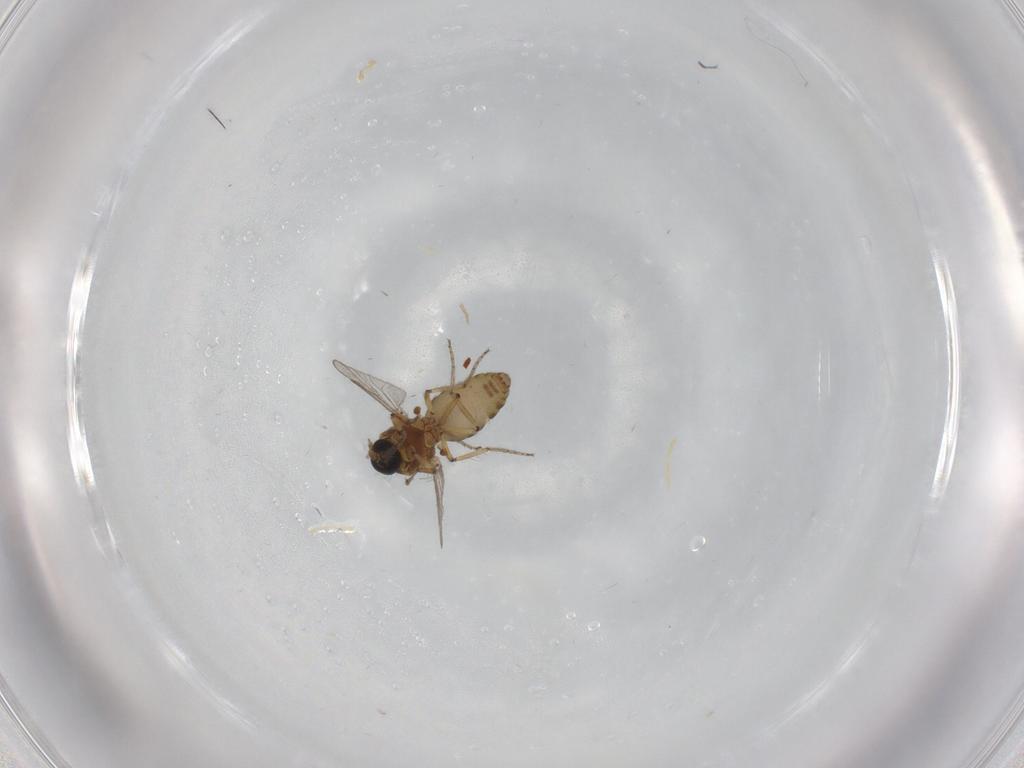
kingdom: Animalia
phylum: Arthropoda
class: Insecta
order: Diptera
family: Ceratopogonidae
